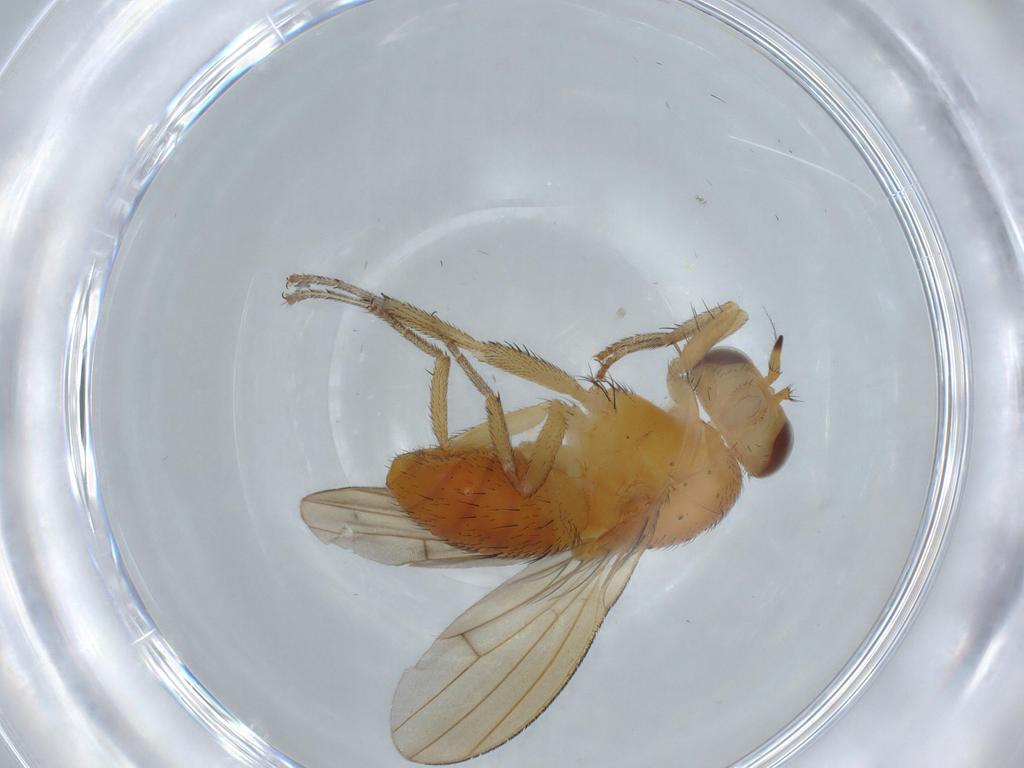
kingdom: Animalia
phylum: Arthropoda
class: Insecta
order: Diptera
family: Lauxaniidae
